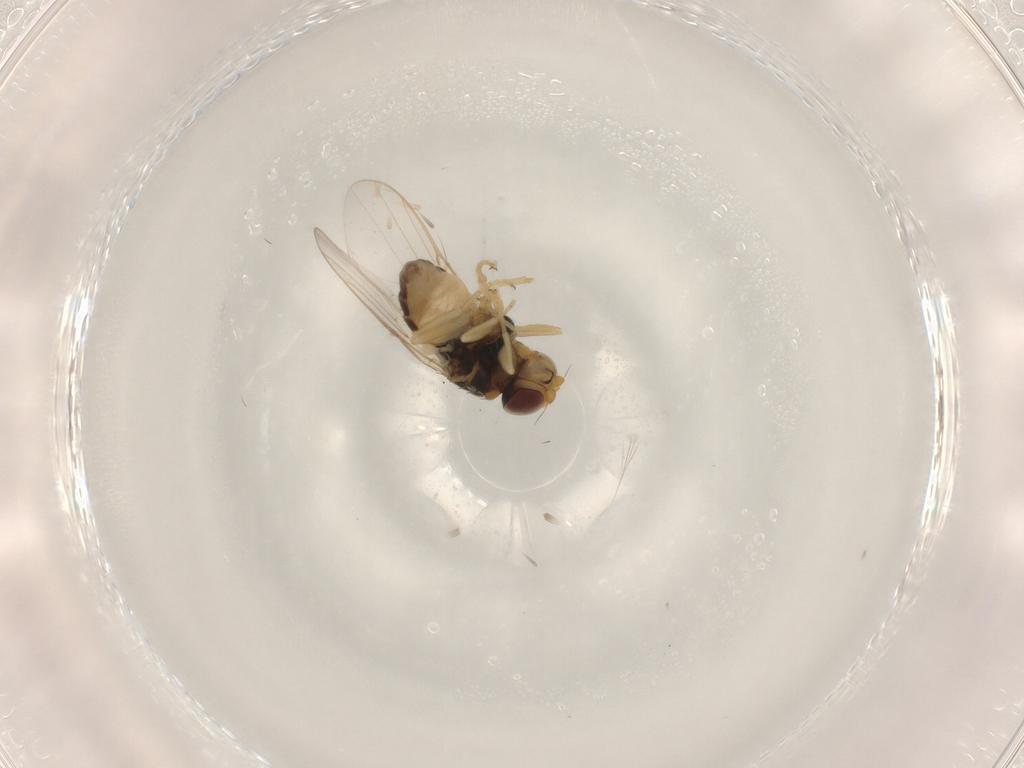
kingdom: Animalia
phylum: Arthropoda
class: Insecta
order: Diptera
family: Chloropidae
